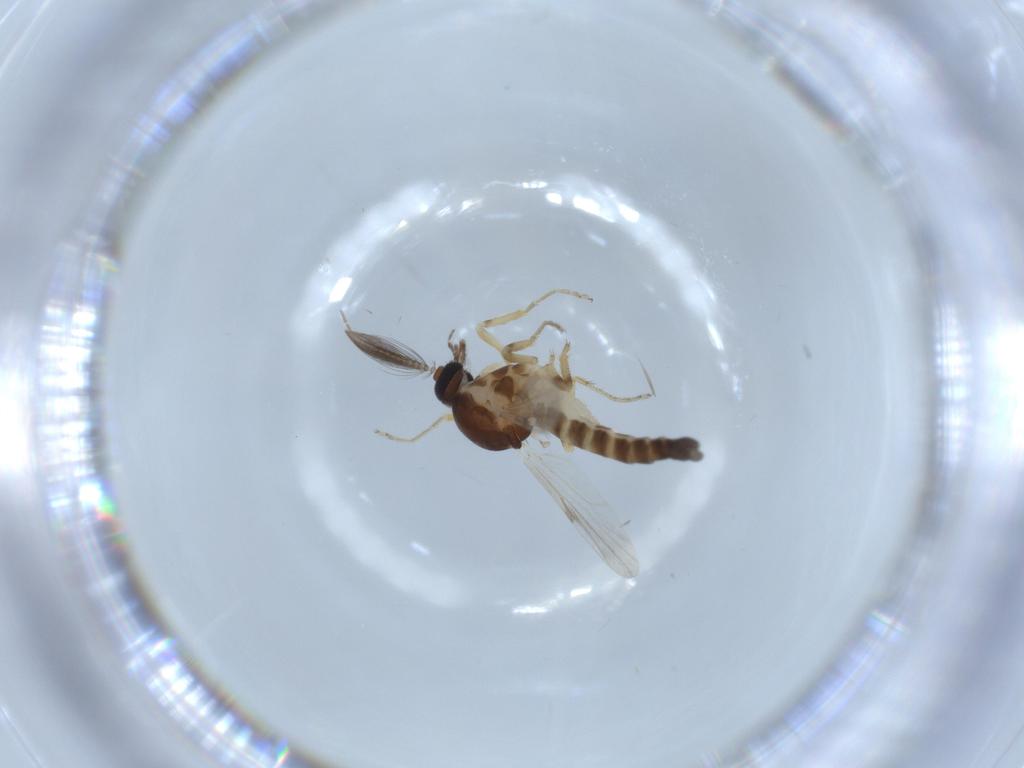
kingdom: Animalia
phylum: Arthropoda
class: Insecta
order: Diptera
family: Ceratopogonidae
